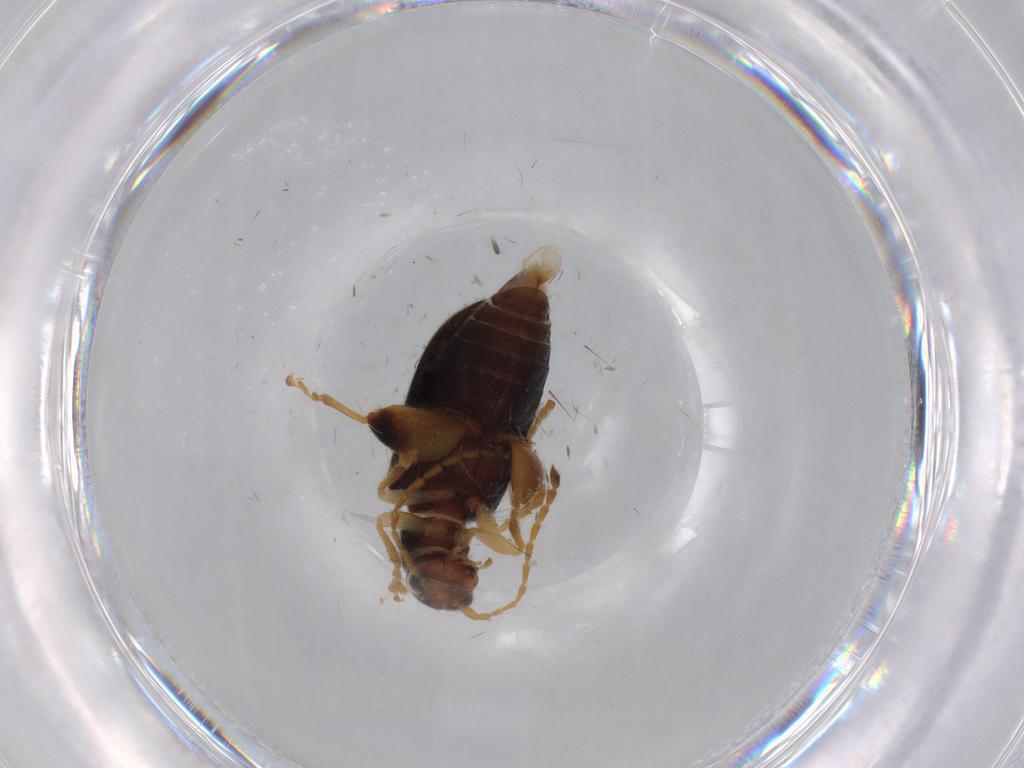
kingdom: Animalia
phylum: Arthropoda
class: Insecta
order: Coleoptera
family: Chrysomelidae
